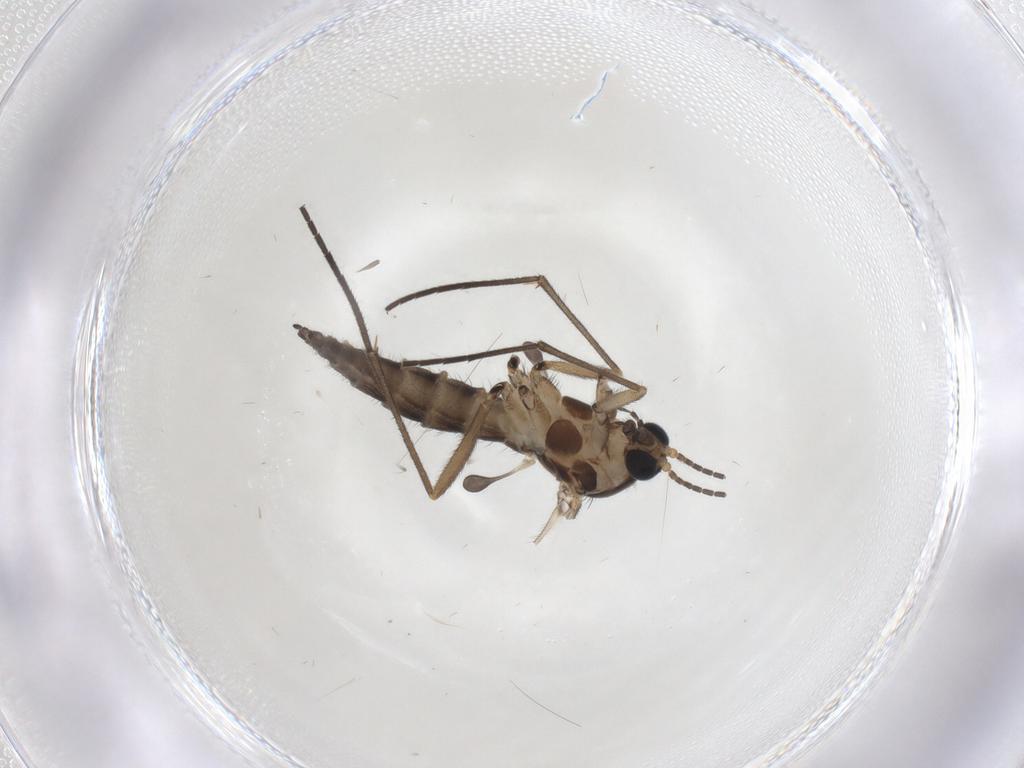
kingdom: Animalia
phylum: Arthropoda
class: Insecta
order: Diptera
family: Sciaridae
